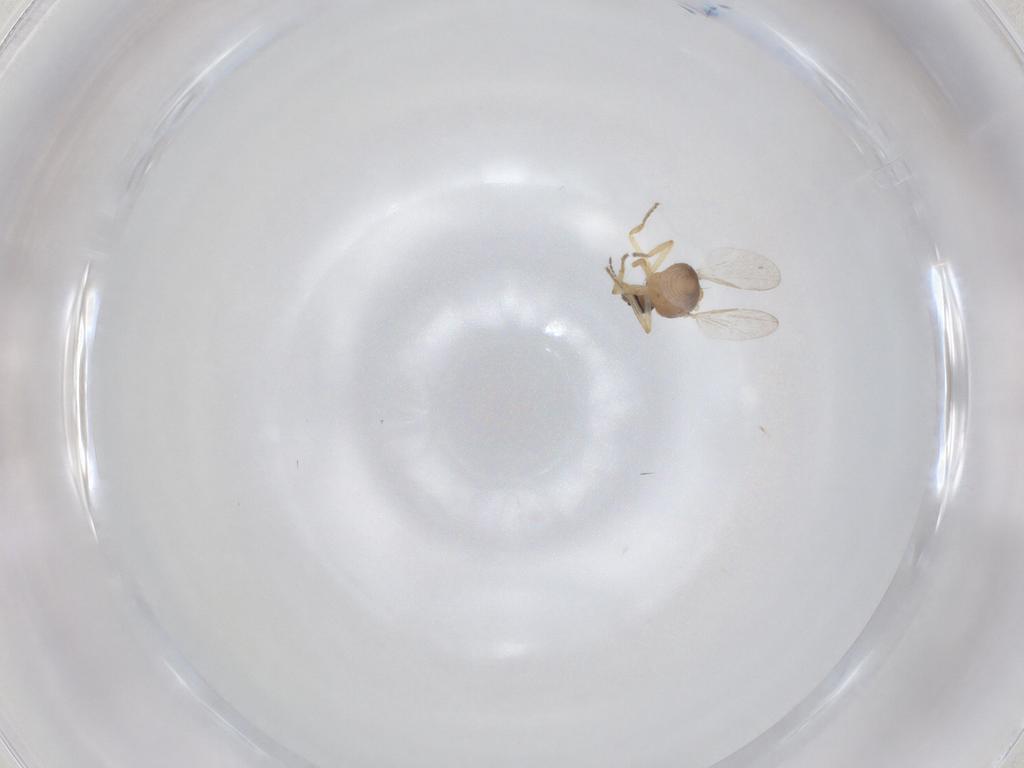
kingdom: Animalia
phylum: Arthropoda
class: Insecta
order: Diptera
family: Ceratopogonidae
